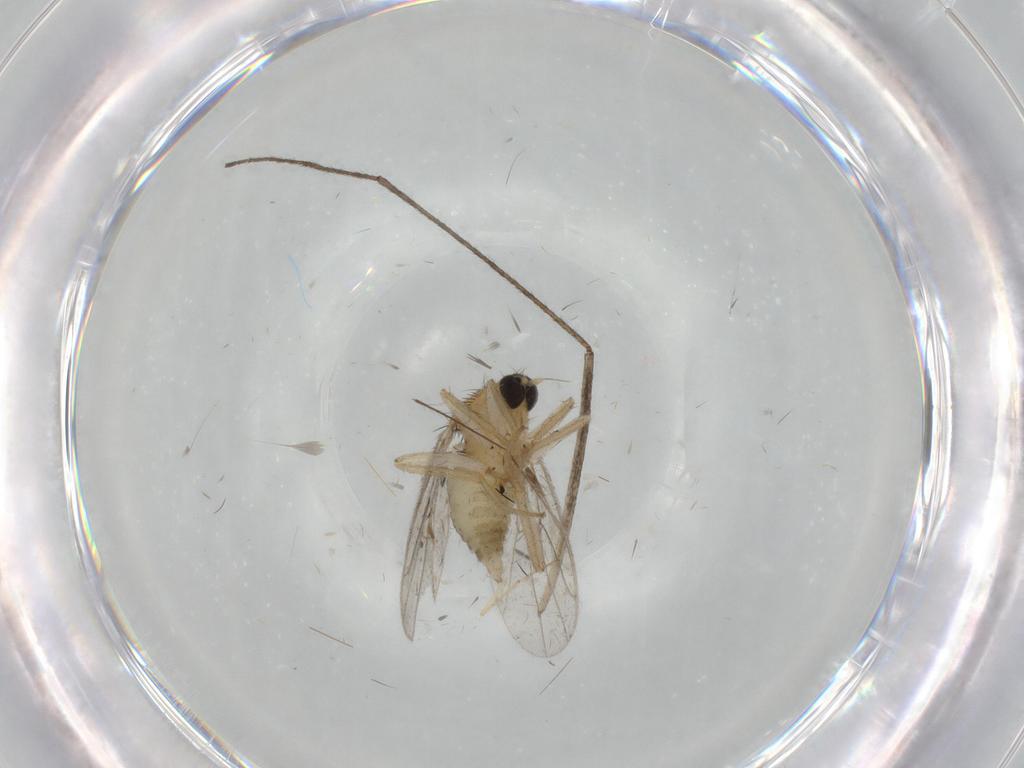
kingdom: Animalia
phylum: Arthropoda
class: Insecta
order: Diptera
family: Hybotidae
